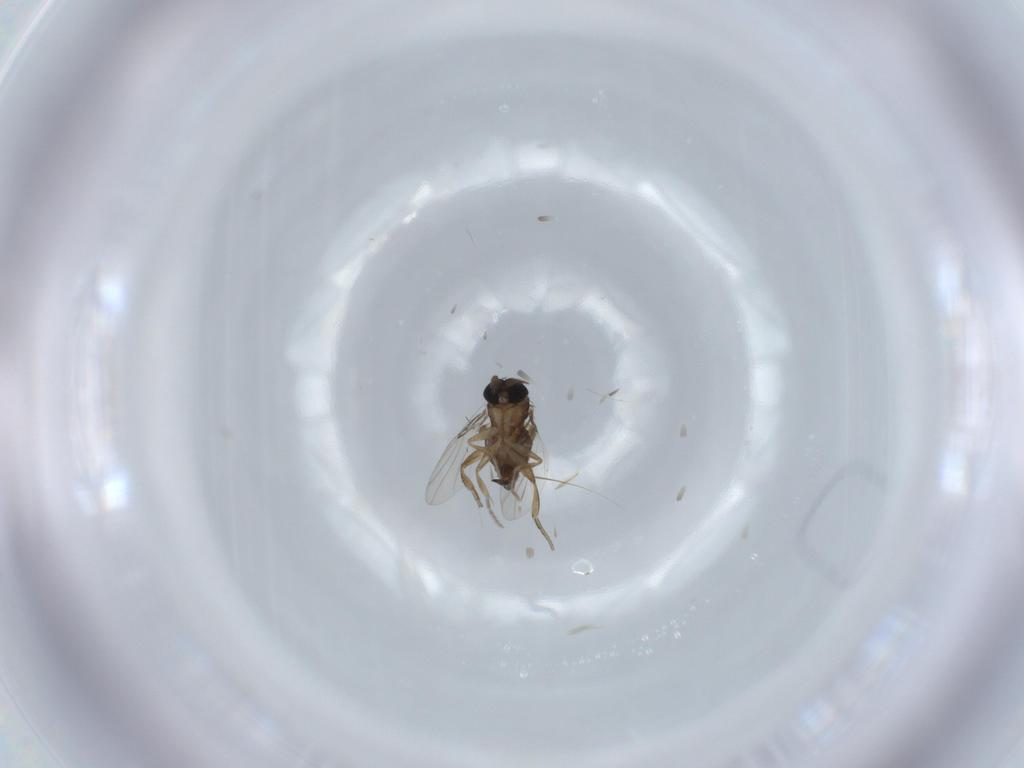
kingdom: Animalia
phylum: Arthropoda
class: Insecta
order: Diptera
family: Phoridae
